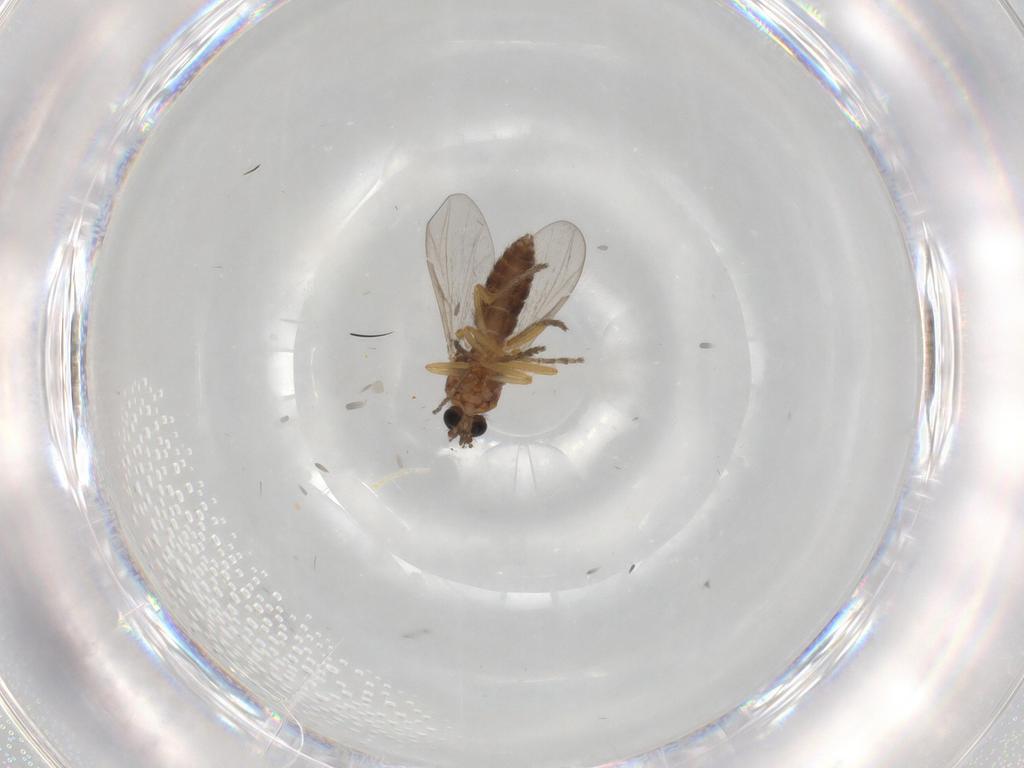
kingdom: Animalia
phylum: Arthropoda
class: Insecta
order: Diptera
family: Ceratopogonidae
